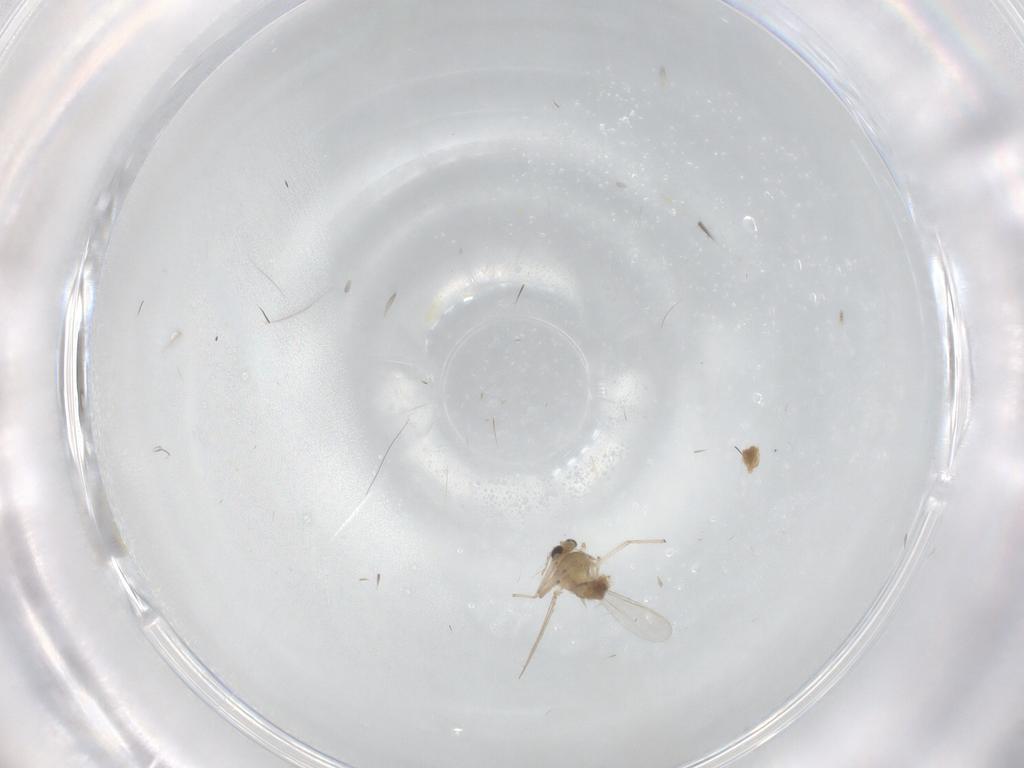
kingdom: Animalia
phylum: Arthropoda
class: Insecta
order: Diptera
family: Chironomidae
